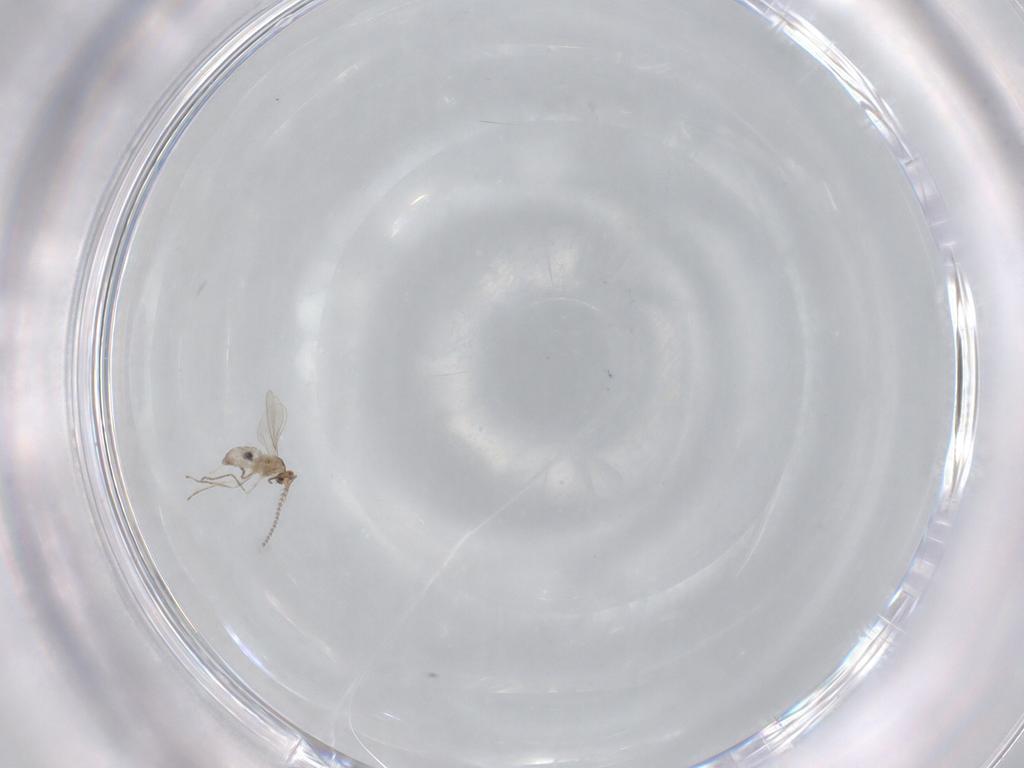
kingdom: Animalia
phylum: Arthropoda
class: Insecta
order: Diptera
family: Cecidomyiidae
